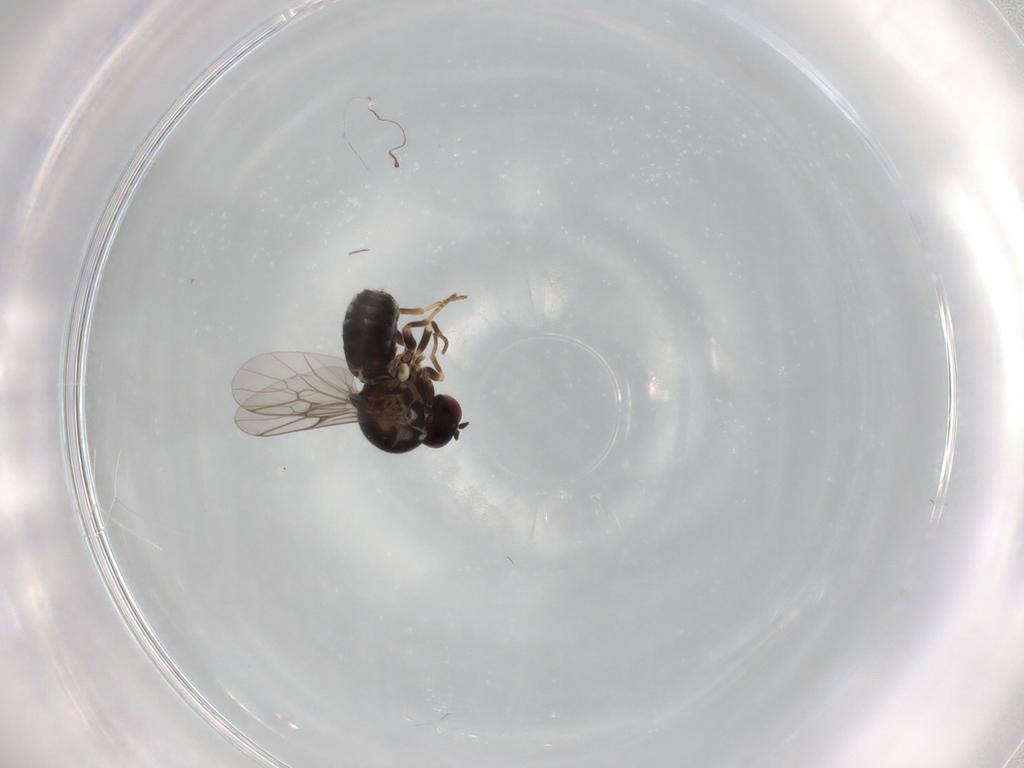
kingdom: Animalia
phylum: Arthropoda
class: Insecta
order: Diptera
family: Bombyliidae
